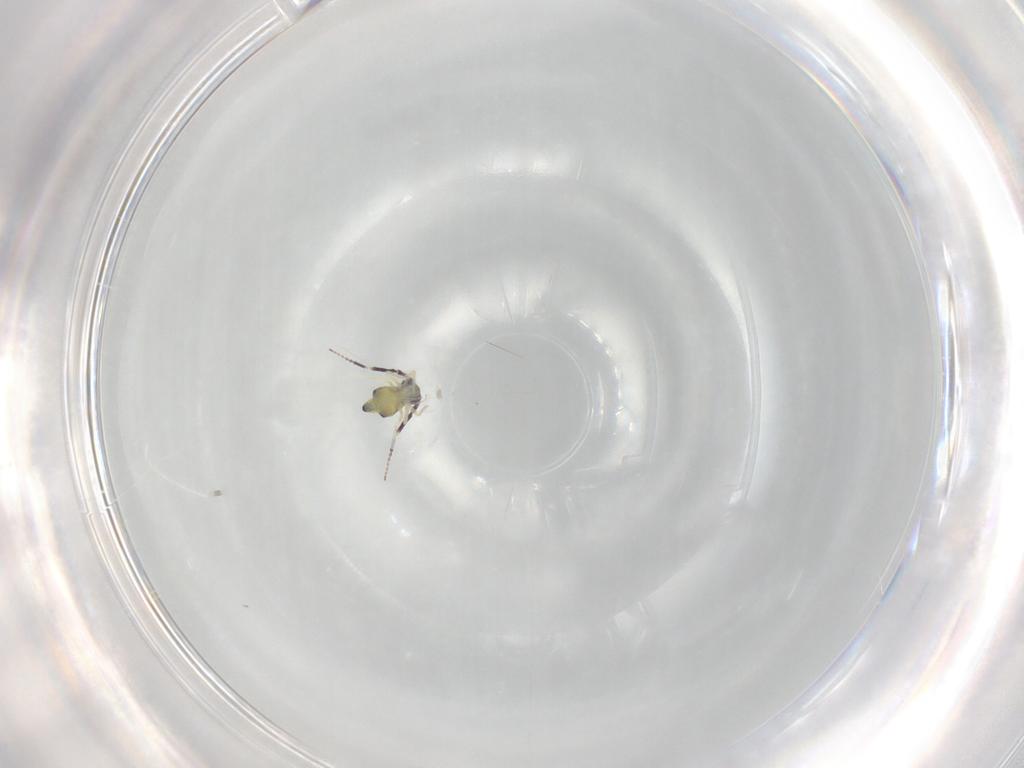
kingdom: Animalia
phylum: Arthropoda
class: Collembola
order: Symphypleona
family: Bourletiellidae
